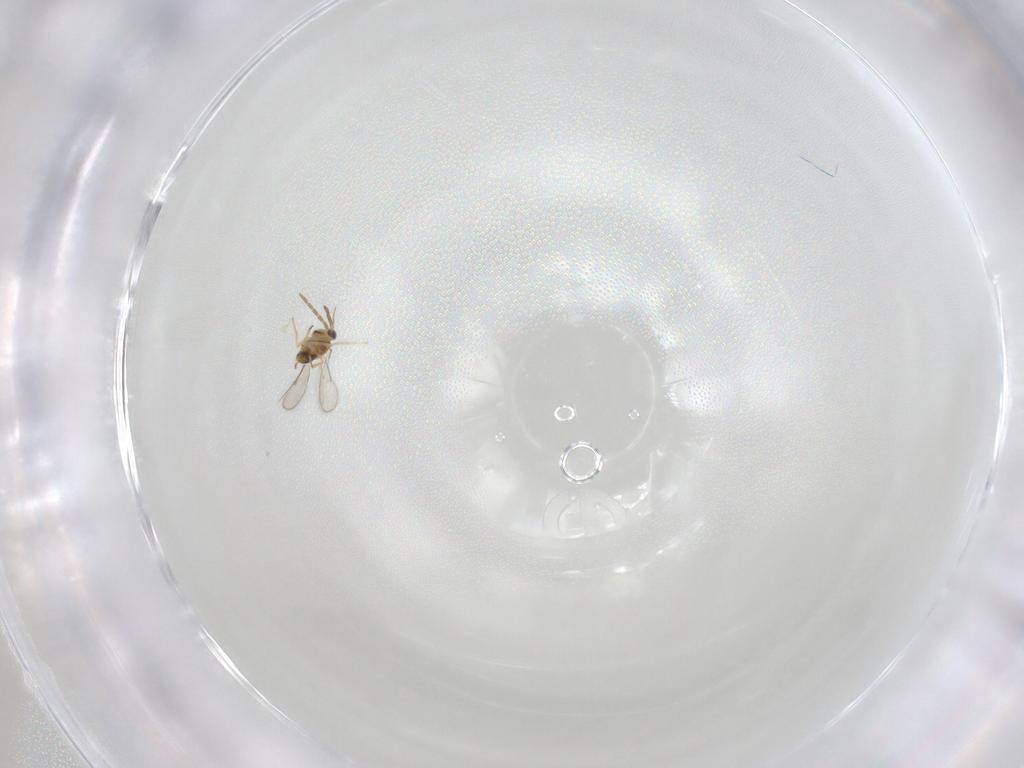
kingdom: Animalia
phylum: Arthropoda
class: Insecta
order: Hymenoptera
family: Aphelinidae
